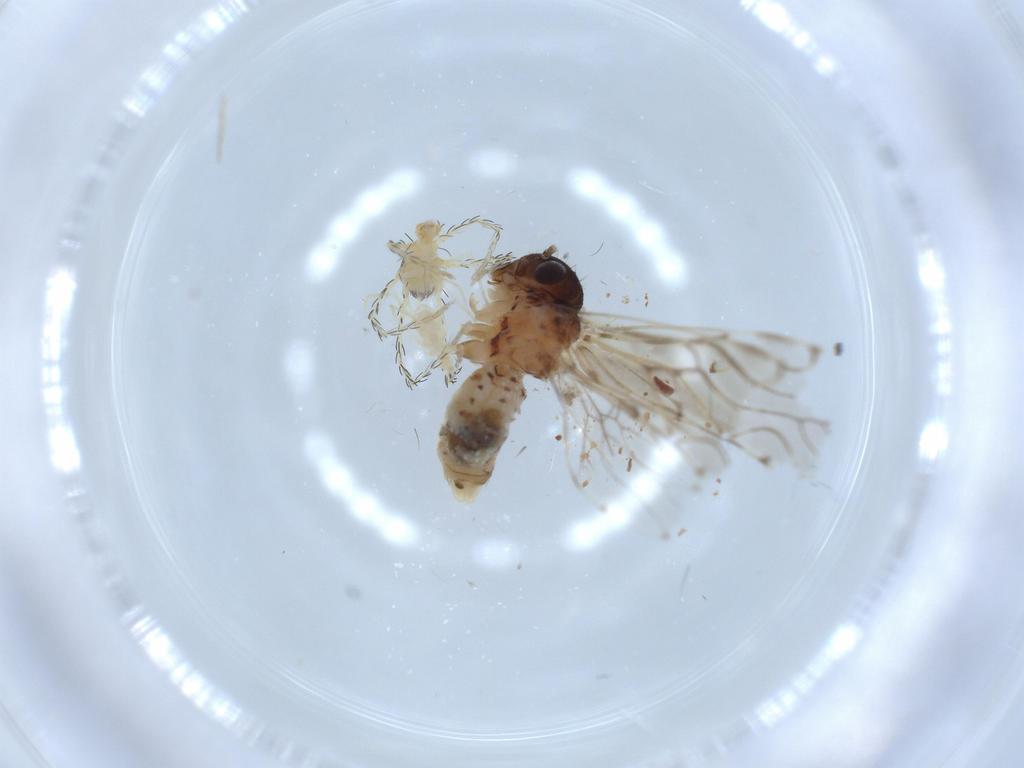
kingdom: Animalia
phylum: Arthropoda
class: Insecta
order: Psocodea
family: Epipsocidae
